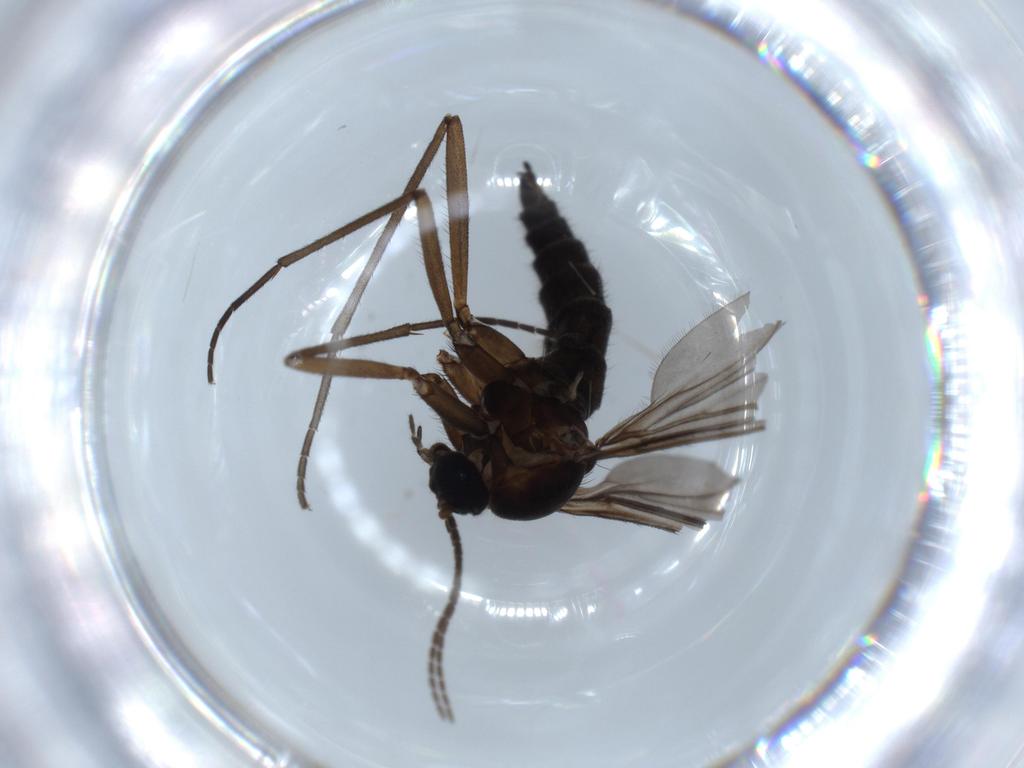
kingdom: Animalia
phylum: Arthropoda
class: Insecta
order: Diptera
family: Sciaridae
